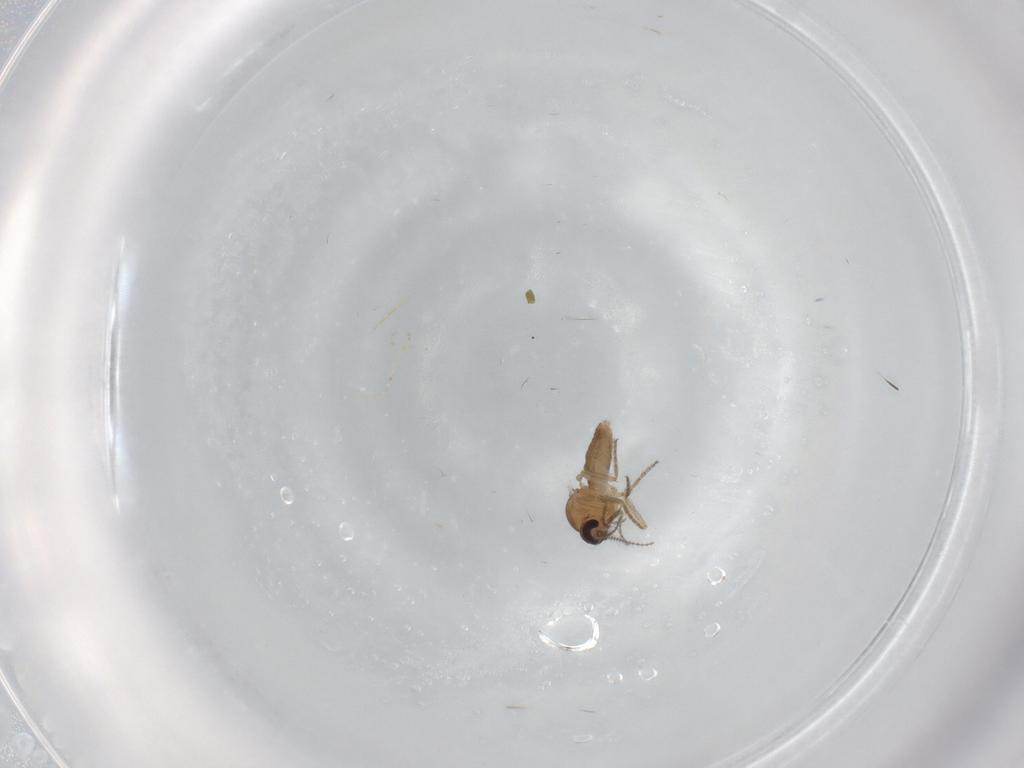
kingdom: Animalia
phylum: Arthropoda
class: Insecta
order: Diptera
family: Ceratopogonidae
